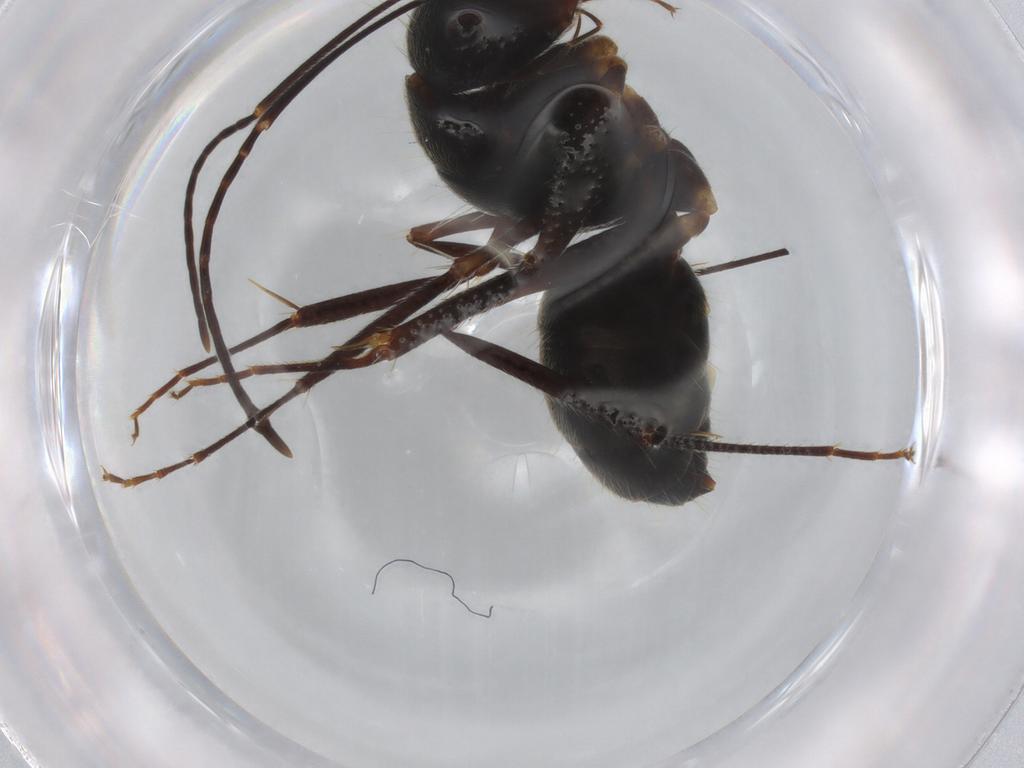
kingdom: Animalia
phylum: Arthropoda
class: Insecta
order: Hymenoptera
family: Formicidae
